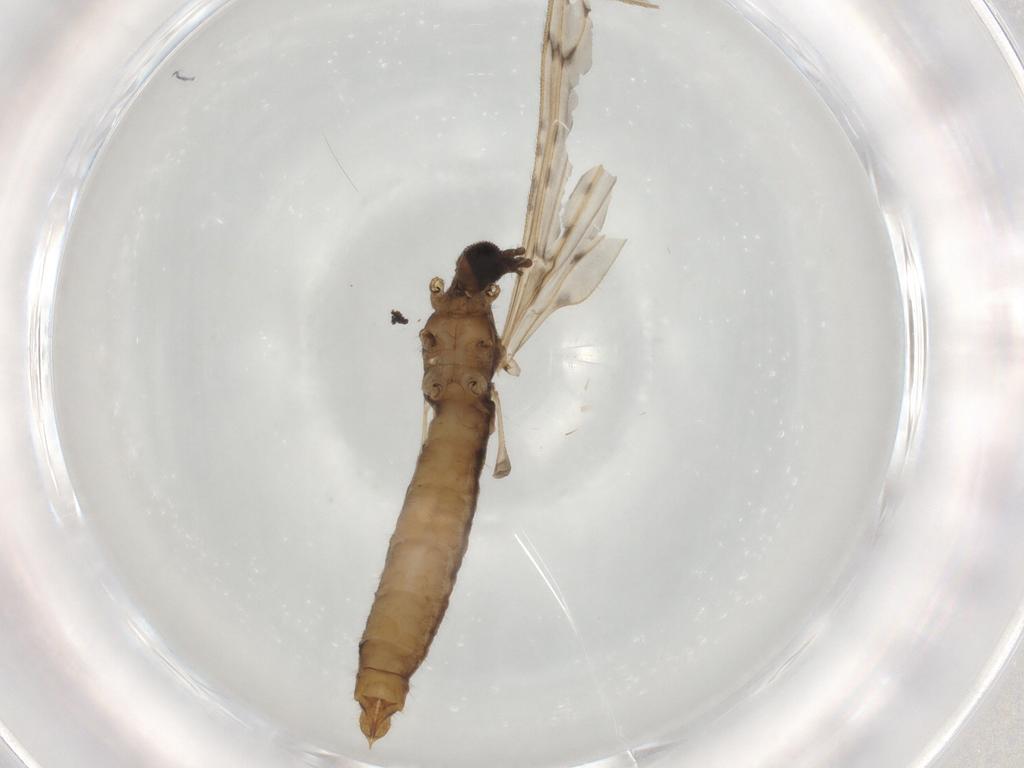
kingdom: Animalia
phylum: Arthropoda
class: Insecta
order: Diptera
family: Limoniidae
